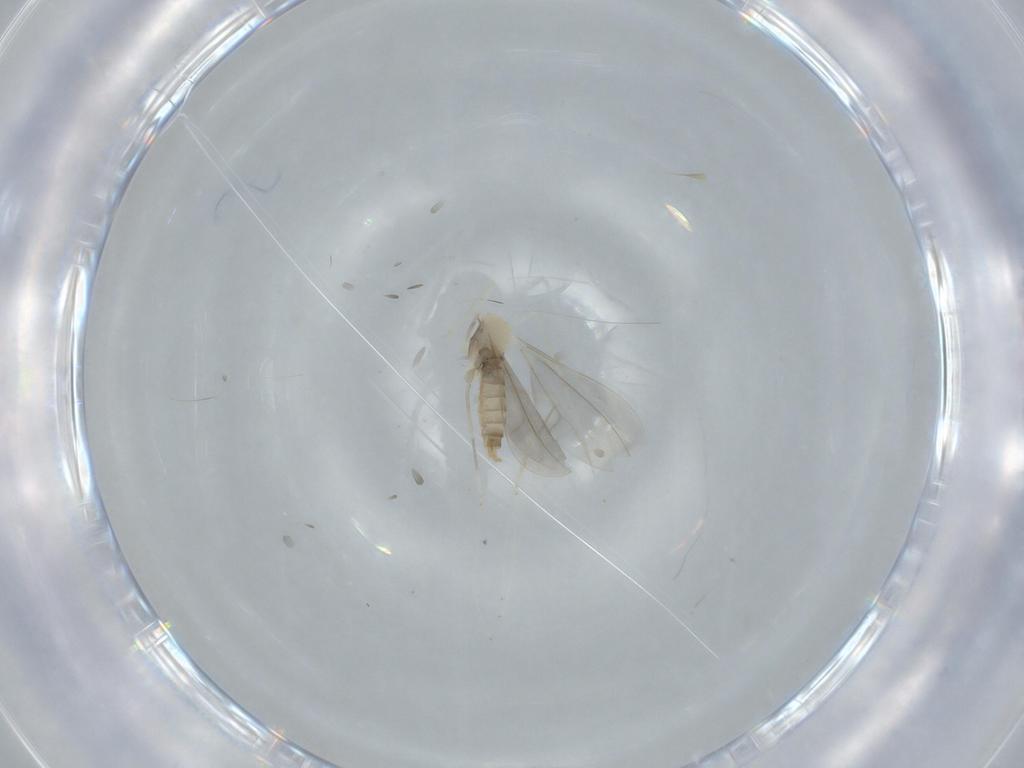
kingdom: Animalia
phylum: Arthropoda
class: Insecta
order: Diptera
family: Cecidomyiidae
